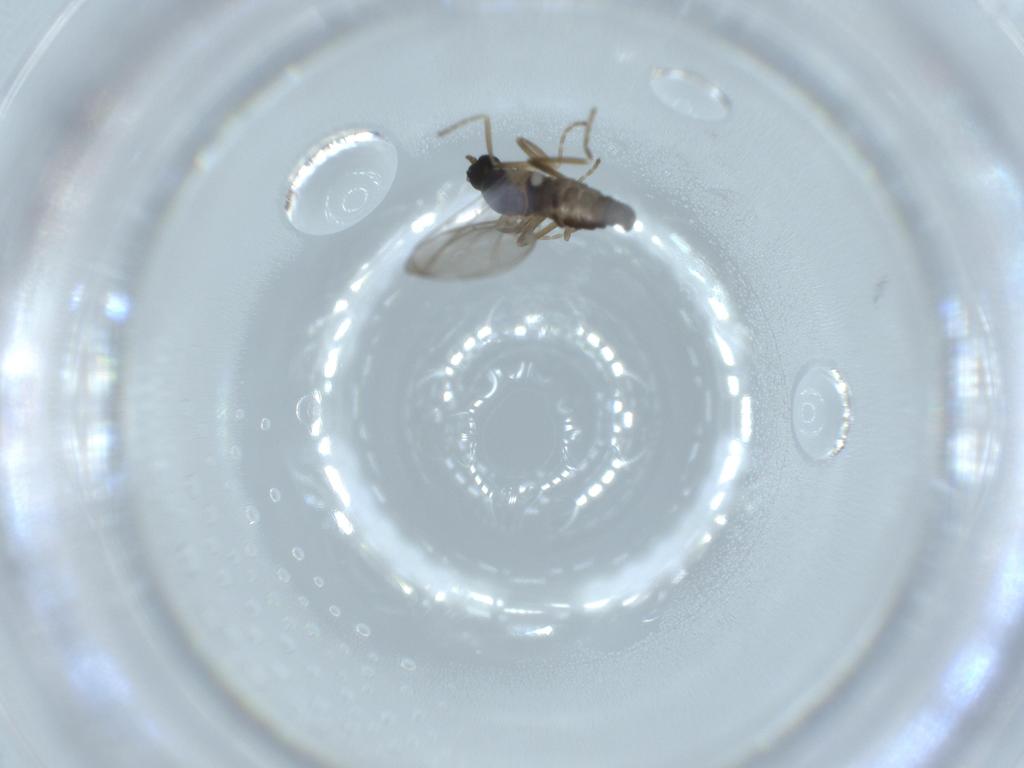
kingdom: Animalia
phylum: Arthropoda
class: Insecta
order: Diptera
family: Cecidomyiidae
